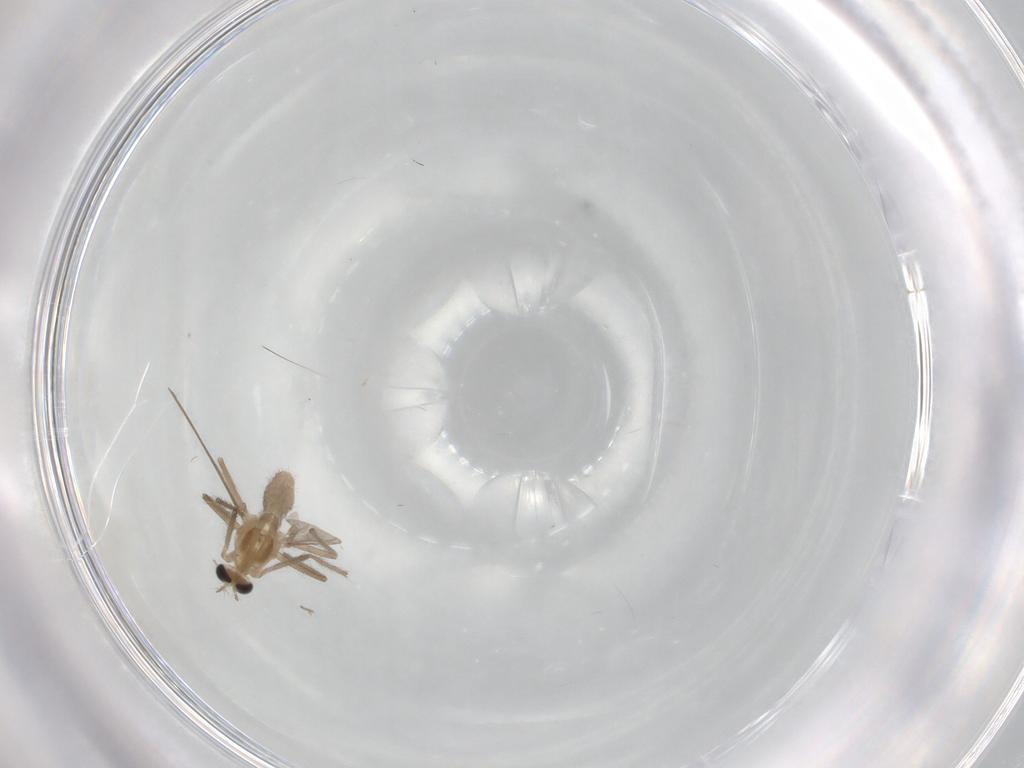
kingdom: Animalia
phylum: Arthropoda
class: Insecta
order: Diptera
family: Chironomidae
